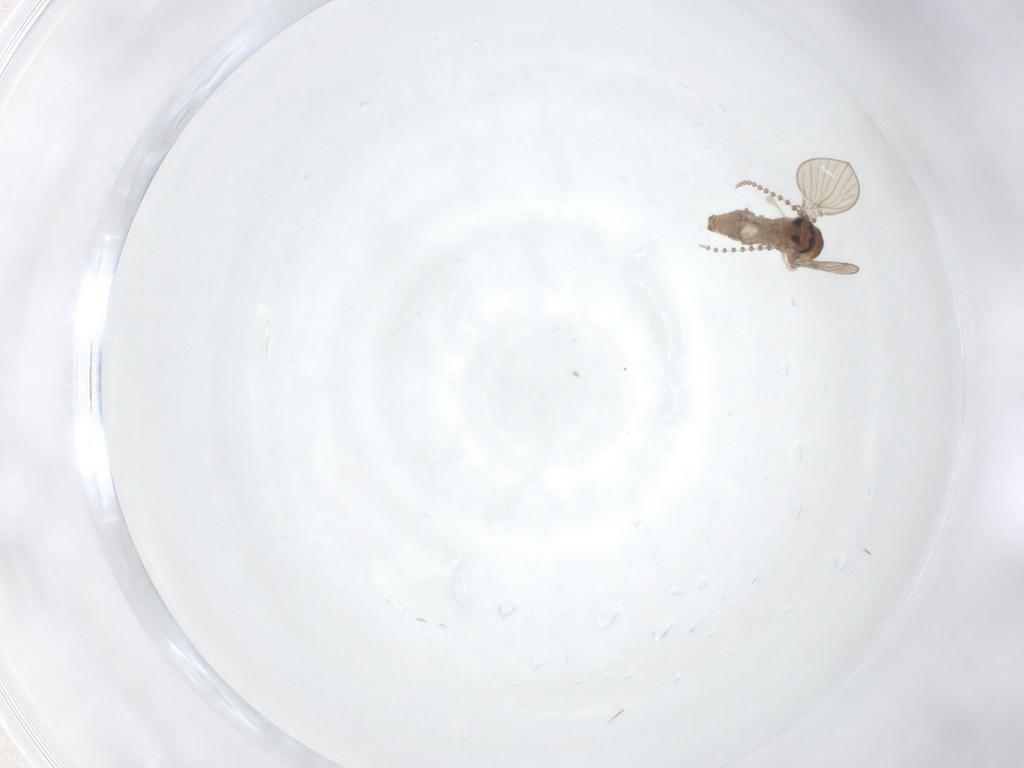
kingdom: Animalia
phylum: Arthropoda
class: Insecta
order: Diptera
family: Psychodidae
